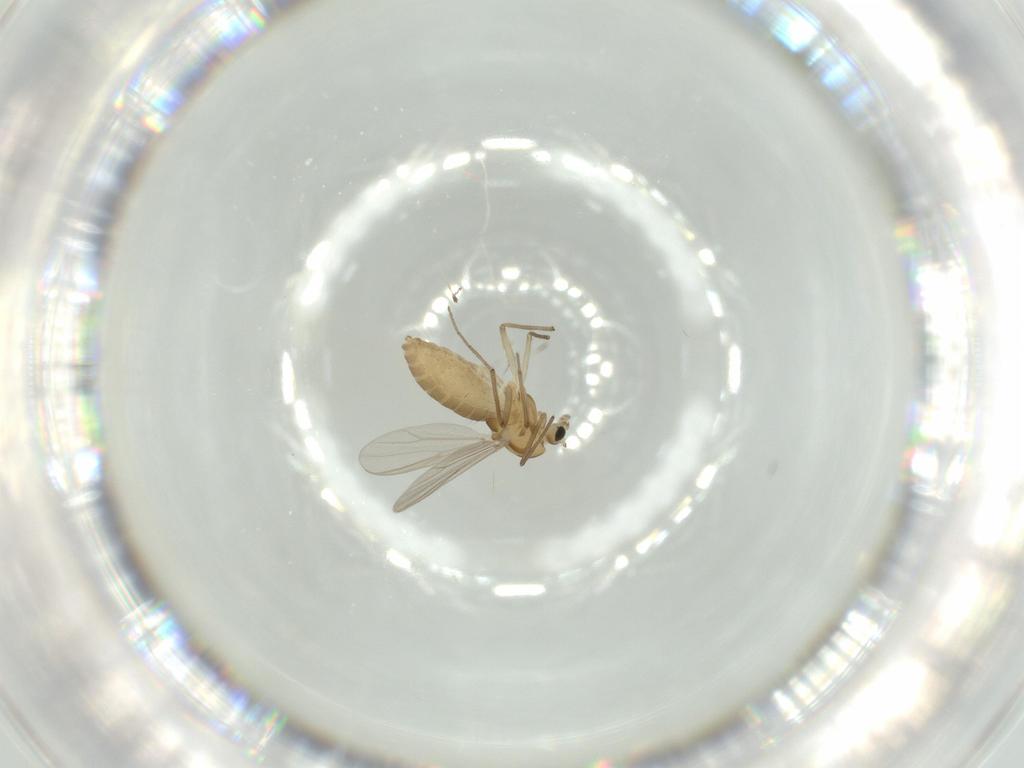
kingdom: Animalia
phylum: Arthropoda
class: Insecta
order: Diptera
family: Chironomidae
